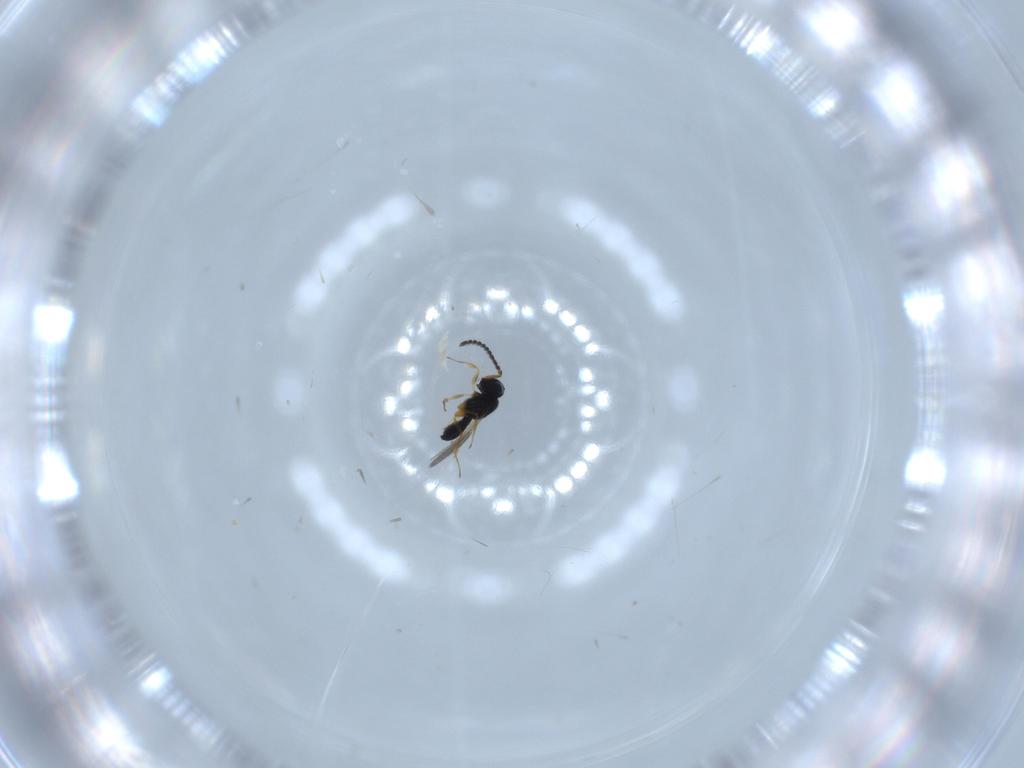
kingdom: Animalia
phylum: Arthropoda
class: Insecta
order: Hymenoptera
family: Scelionidae
